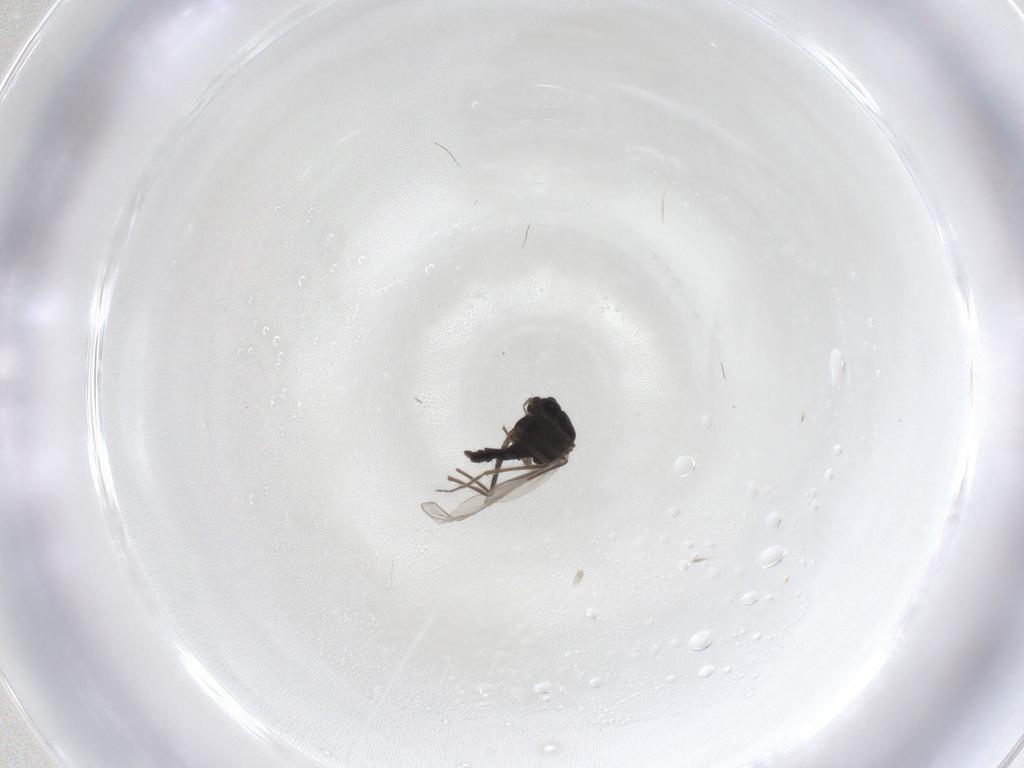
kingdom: Animalia
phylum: Arthropoda
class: Insecta
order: Diptera
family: Chironomidae
